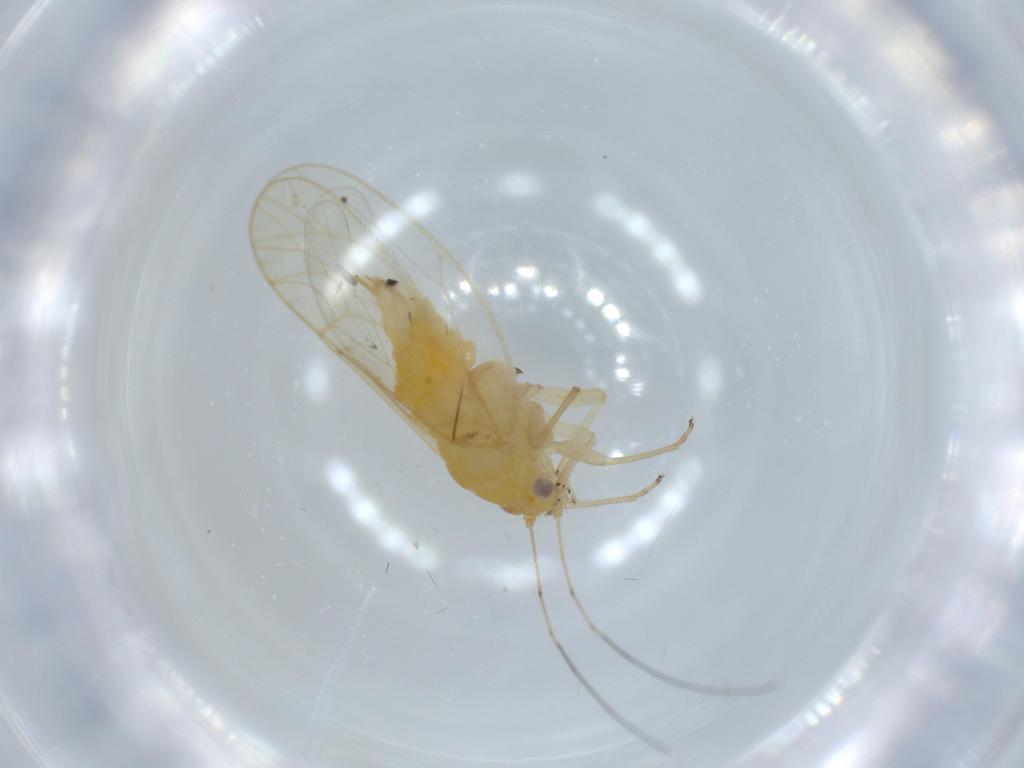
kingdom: Animalia
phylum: Arthropoda
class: Insecta
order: Hemiptera
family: Psyllidae
